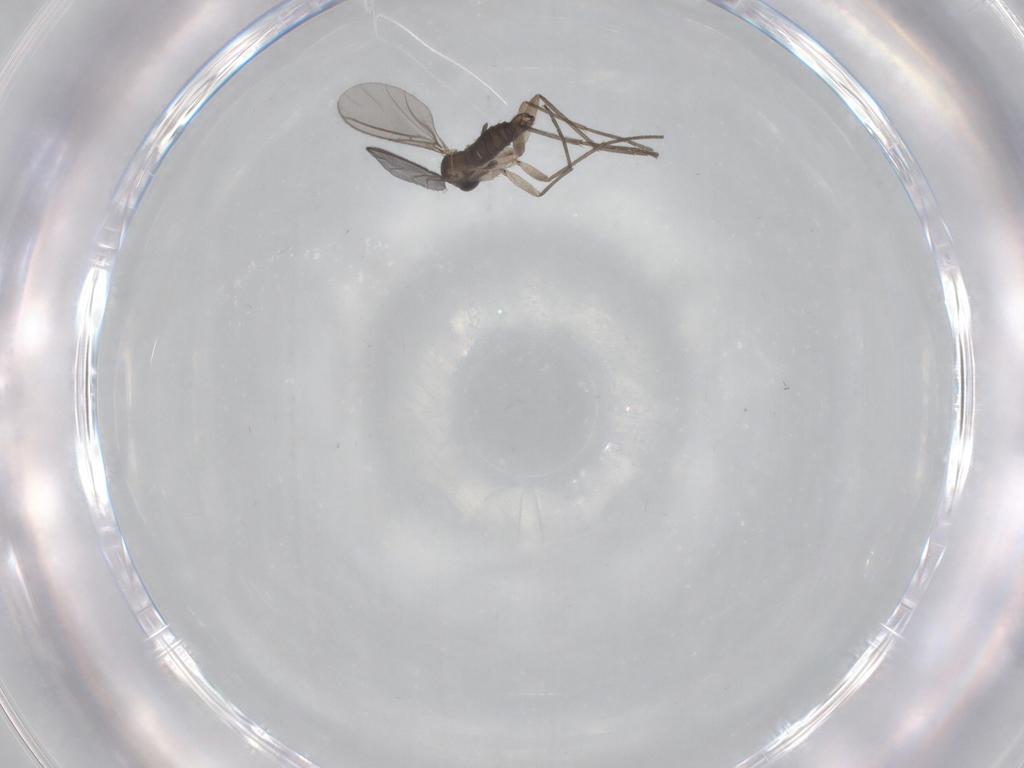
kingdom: Animalia
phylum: Arthropoda
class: Insecta
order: Diptera
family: Sciaridae
